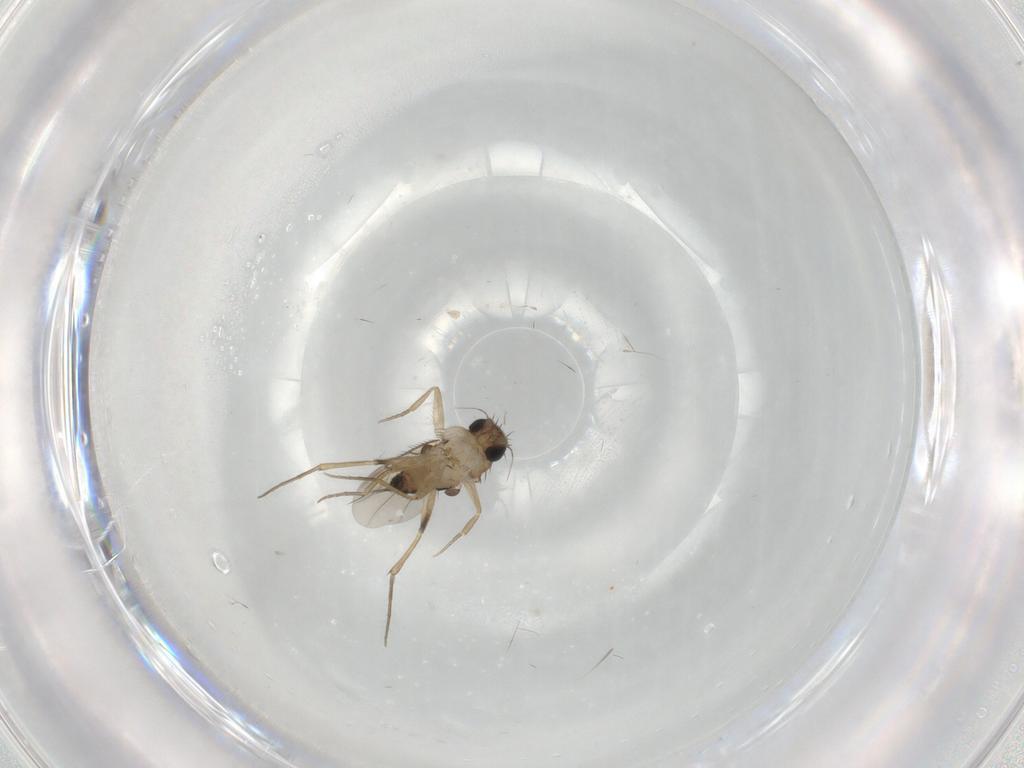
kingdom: Animalia
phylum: Arthropoda
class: Insecta
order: Diptera
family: Phoridae
